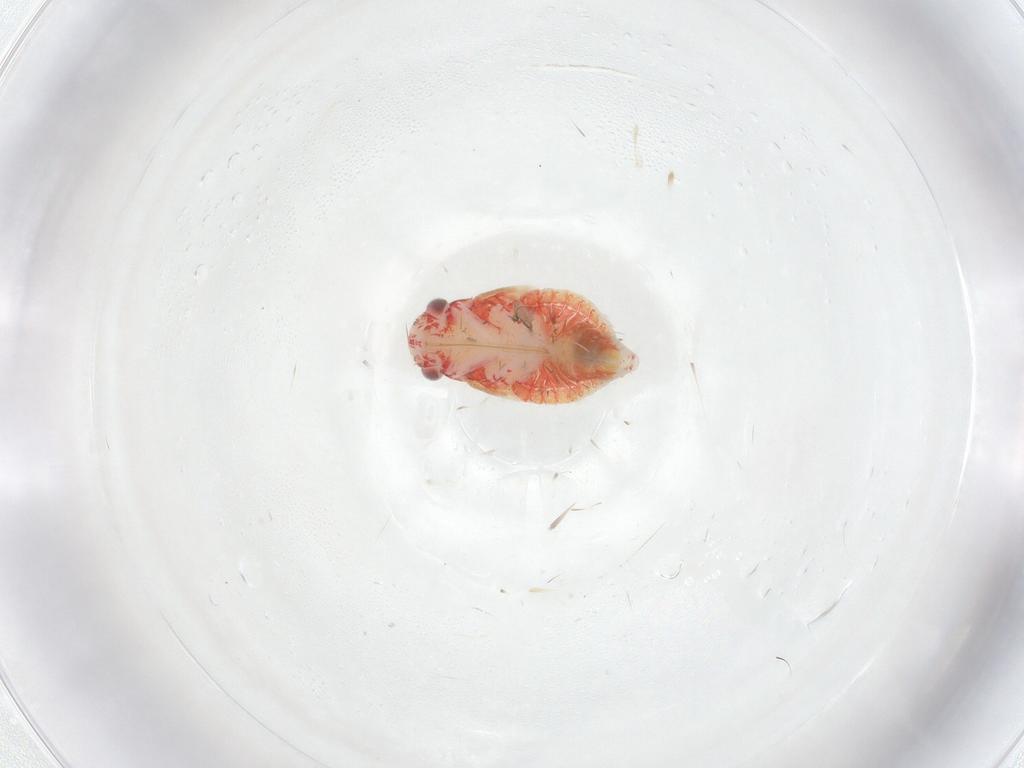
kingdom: Animalia
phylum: Arthropoda
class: Insecta
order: Hemiptera
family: Miridae
